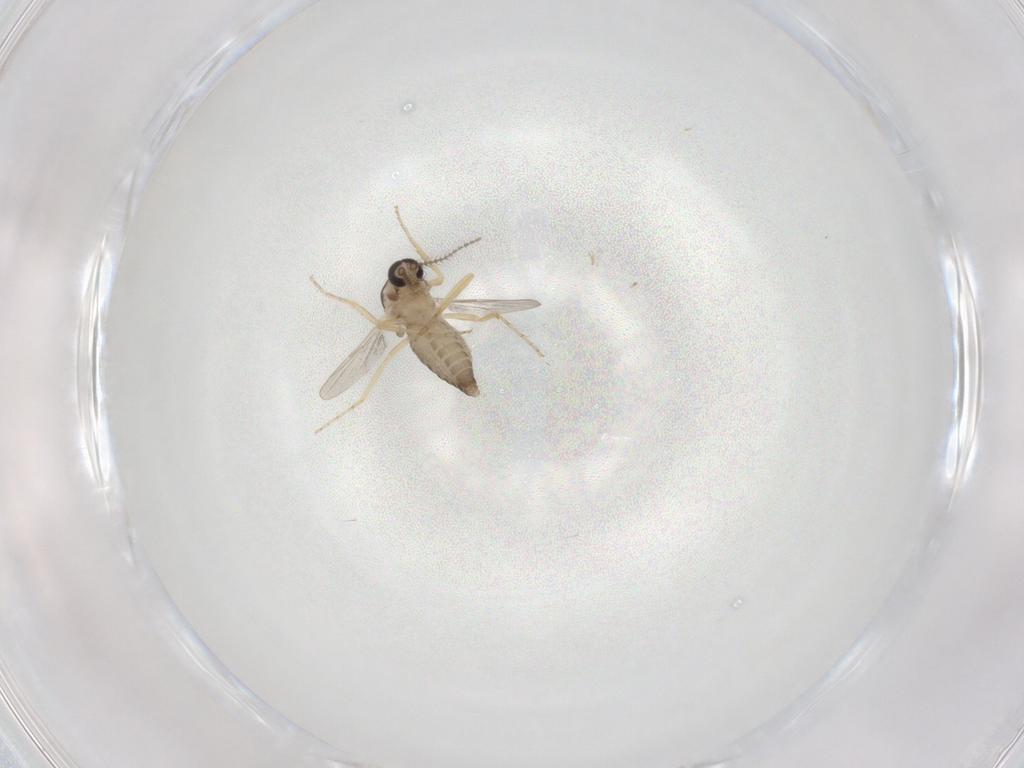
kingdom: Animalia
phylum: Arthropoda
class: Insecta
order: Diptera
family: Ceratopogonidae
